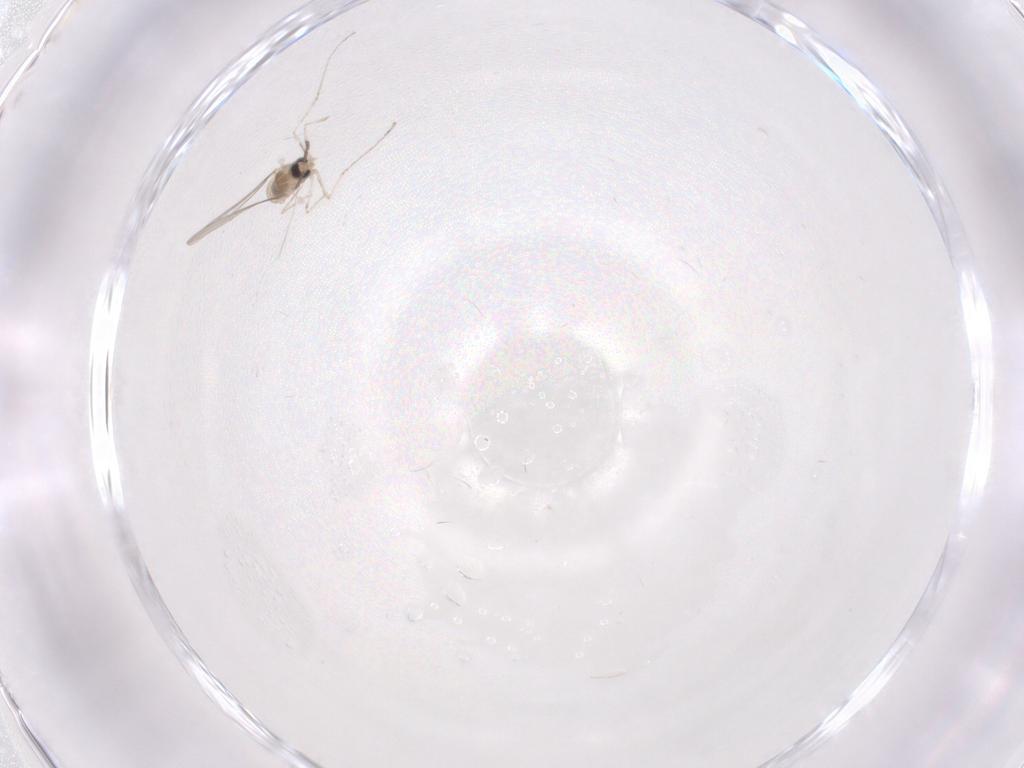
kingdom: Animalia
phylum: Arthropoda
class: Insecta
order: Diptera
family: Cecidomyiidae
